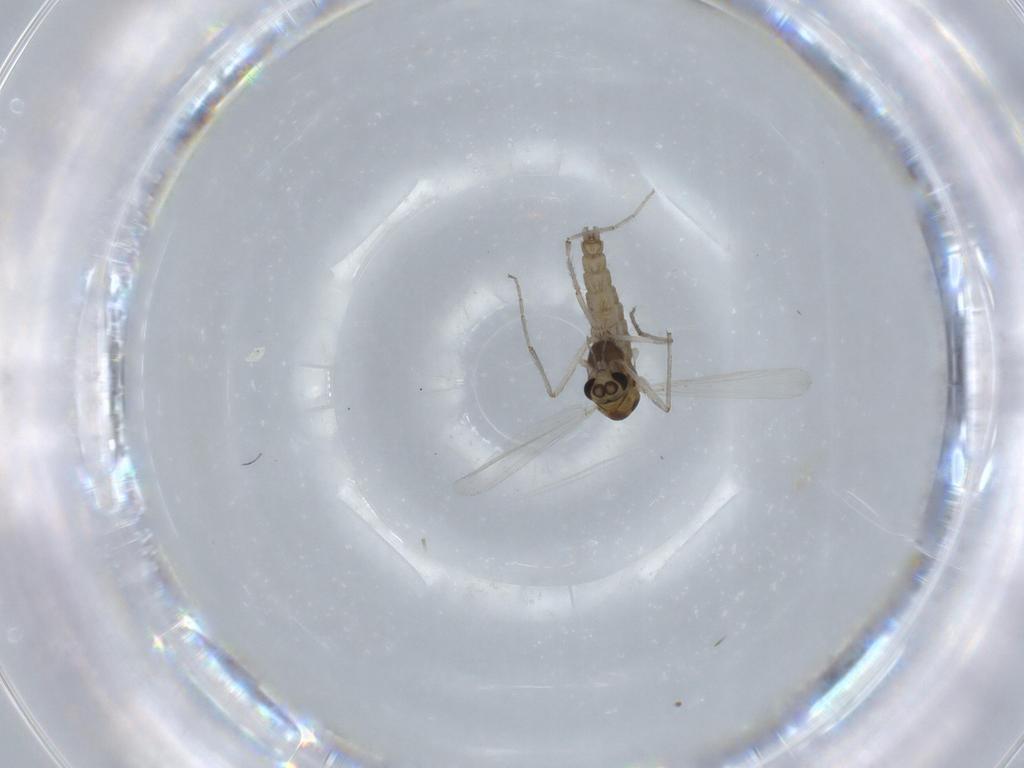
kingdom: Animalia
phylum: Arthropoda
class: Insecta
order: Diptera
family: Chironomidae
